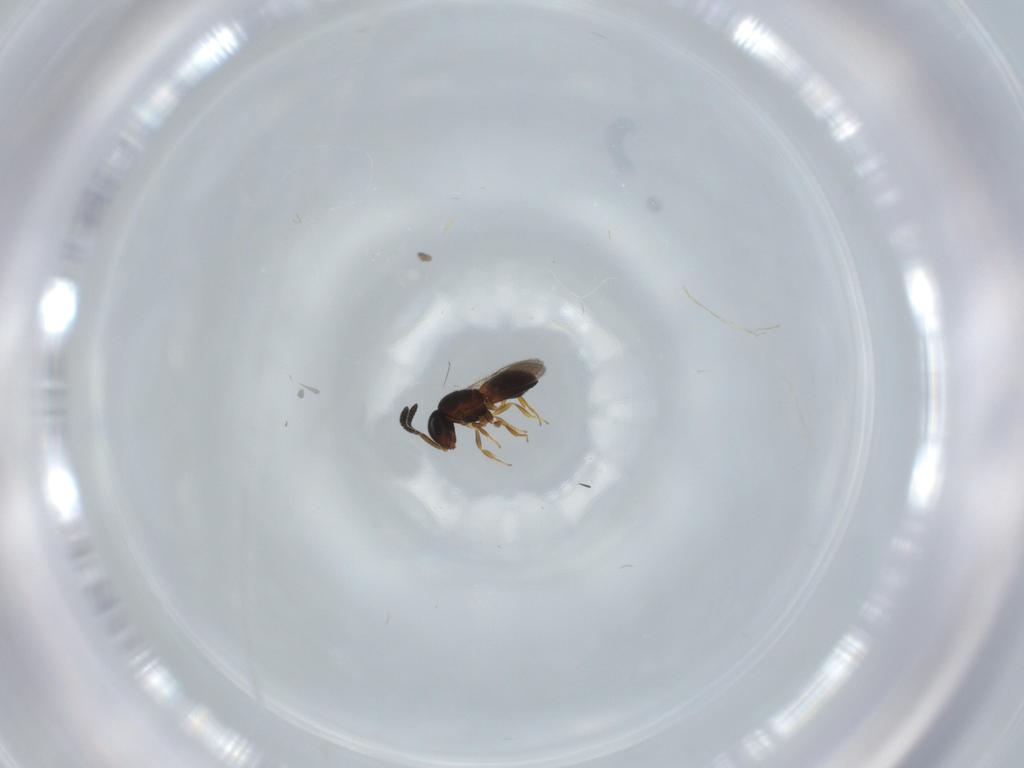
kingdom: Animalia
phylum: Arthropoda
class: Insecta
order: Hymenoptera
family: Scelionidae
